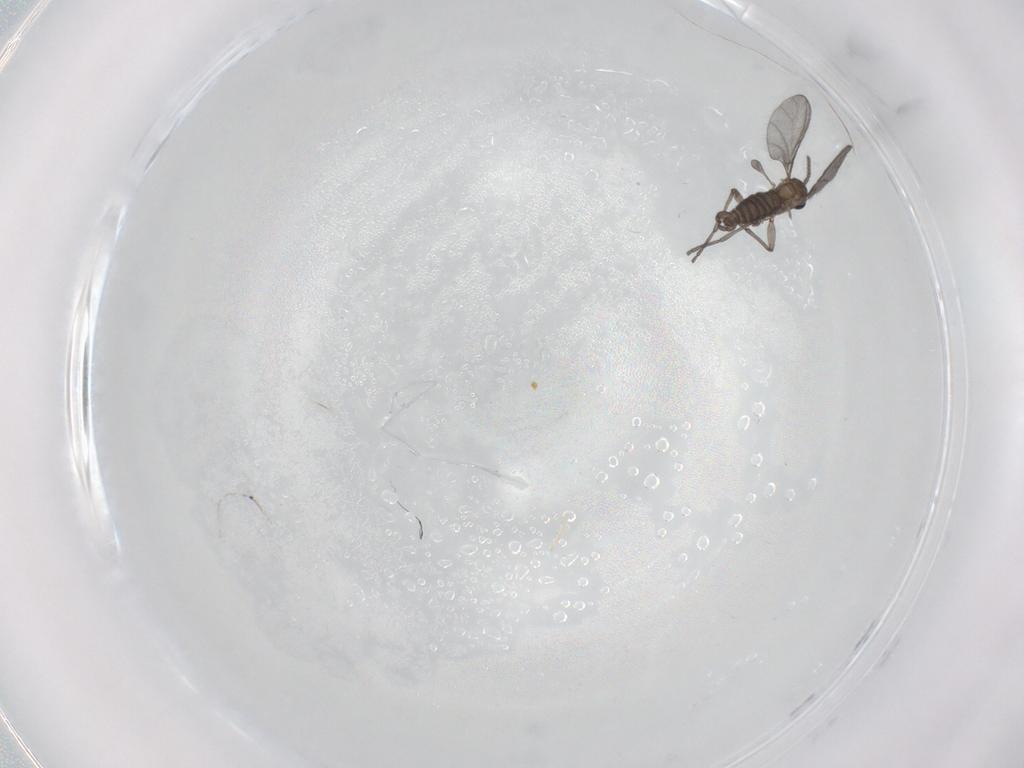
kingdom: Animalia
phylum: Arthropoda
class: Insecta
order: Diptera
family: Sciaridae
